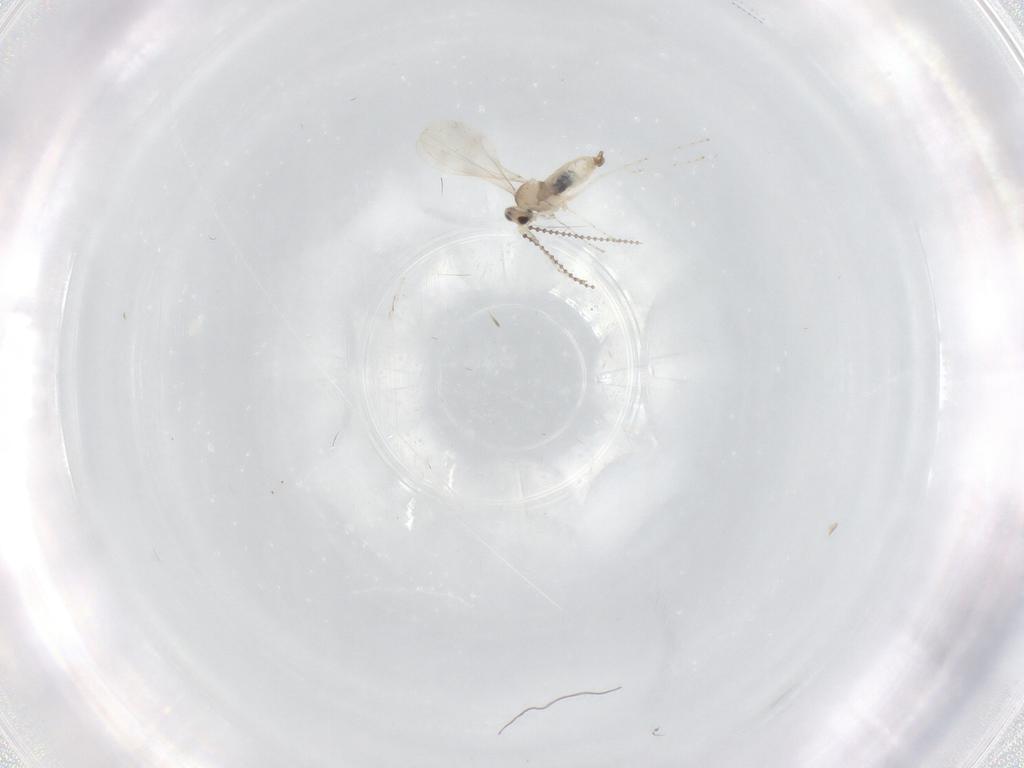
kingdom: Animalia
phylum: Arthropoda
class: Insecta
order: Diptera
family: Cecidomyiidae
